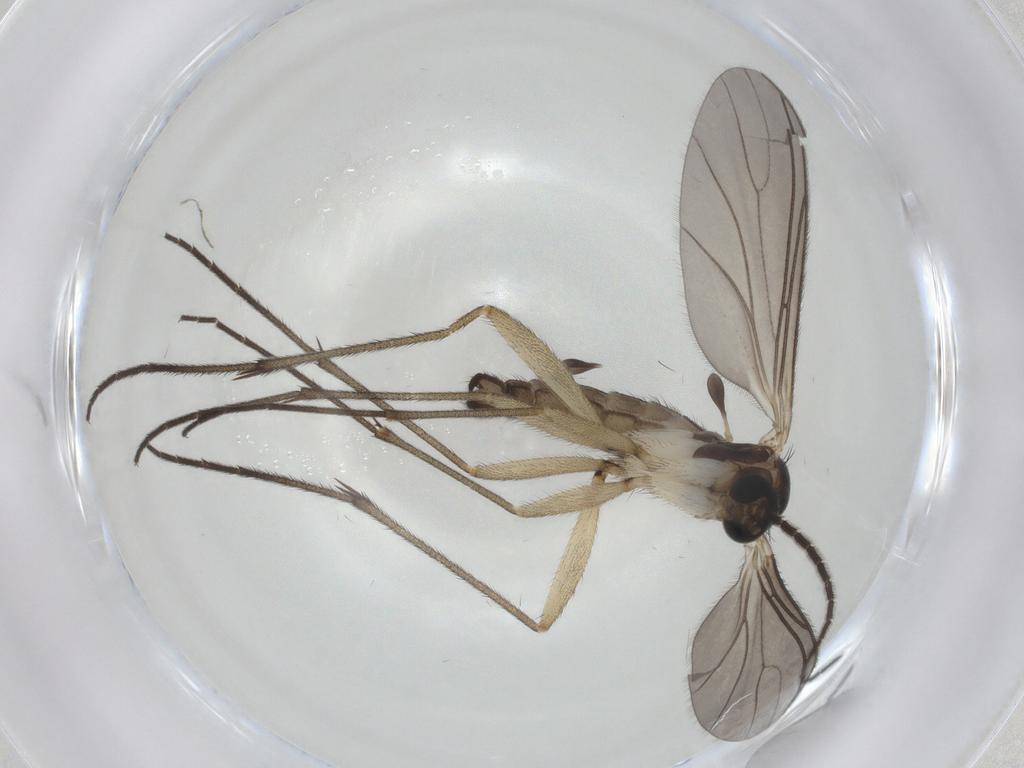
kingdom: Animalia
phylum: Arthropoda
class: Insecta
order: Diptera
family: Sciaridae
